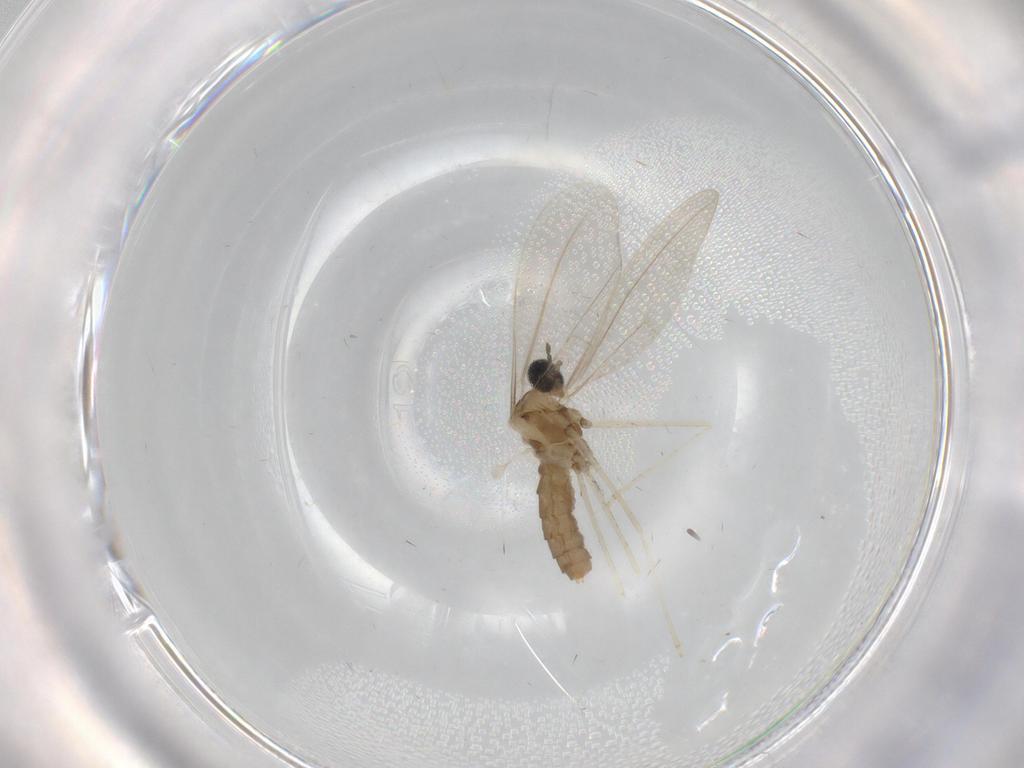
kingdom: Animalia
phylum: Arthropoda
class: Insecta
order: Diptera
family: Cecidomyiidae
